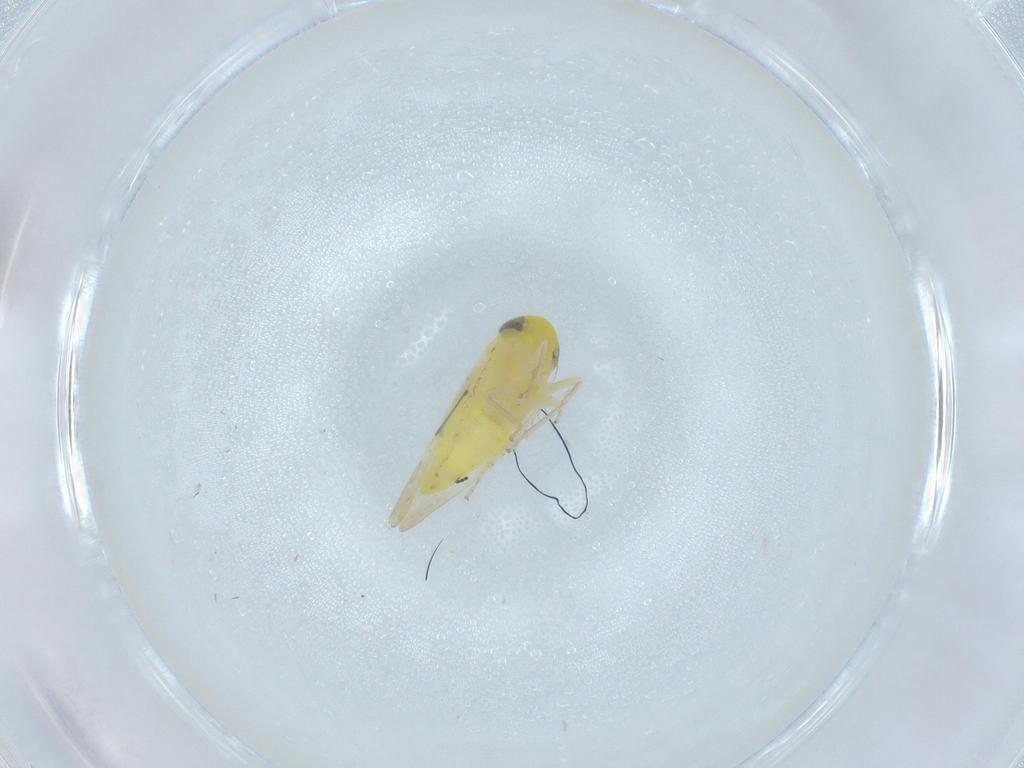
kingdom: Animalia
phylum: Arthropoda
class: Insecta
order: Hemiptera
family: Cicadellidae
